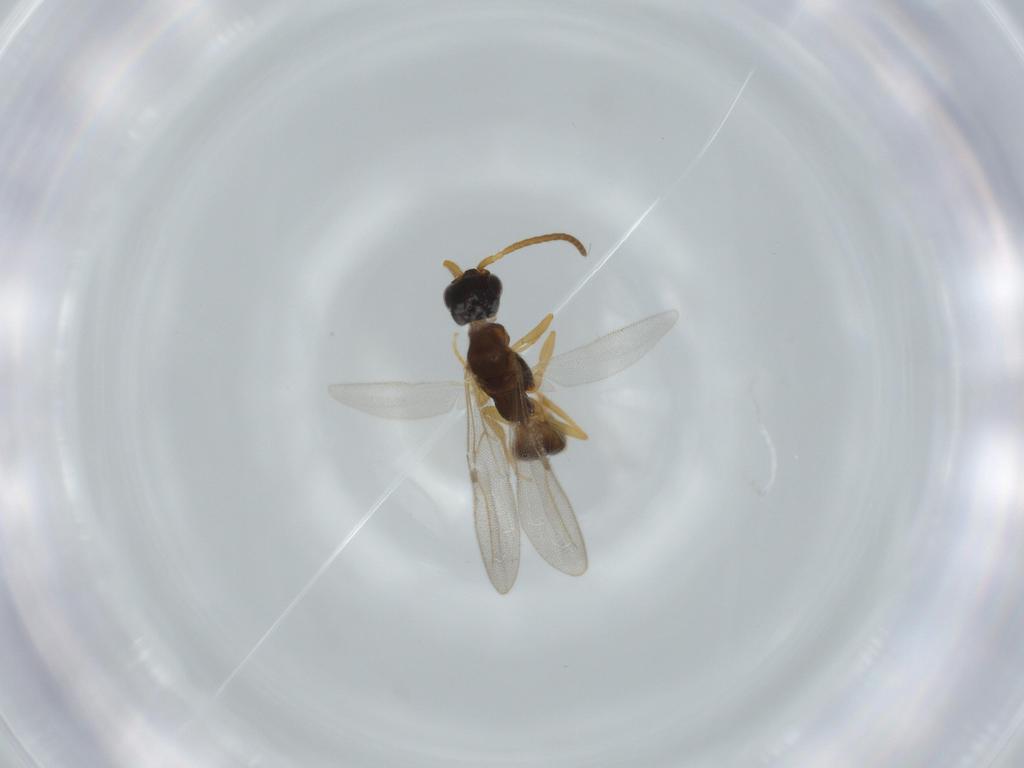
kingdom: Animalia
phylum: Arthropoda
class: Insecta
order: Hymenoptera
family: Bethylidae
